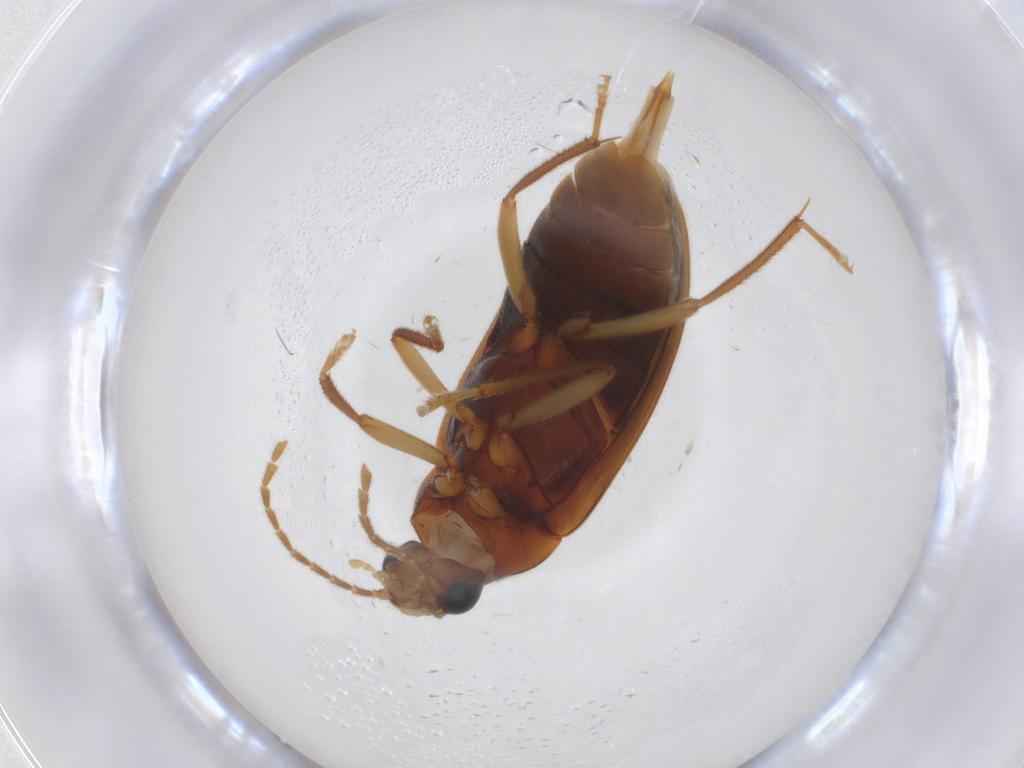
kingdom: Animalia
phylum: Arthropoda
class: Insecta
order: Coleoptera
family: Ptilodactylidae
